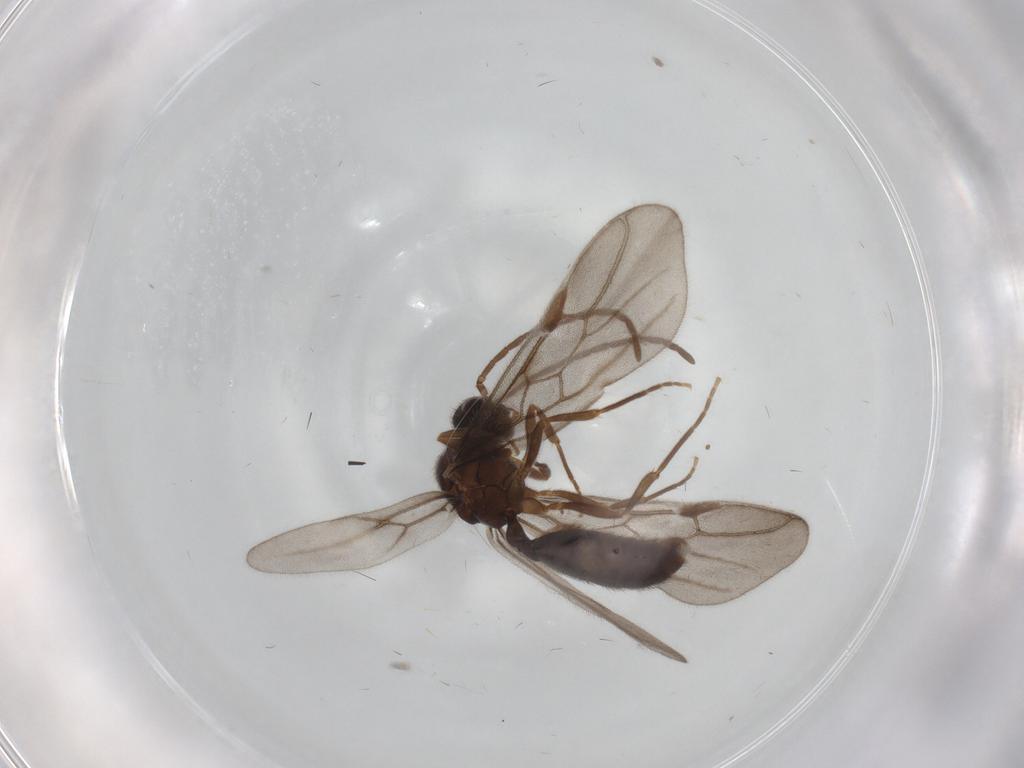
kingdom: Animalia
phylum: Arthropoda
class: Insecta
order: Hymenoptera
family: Formicidae
